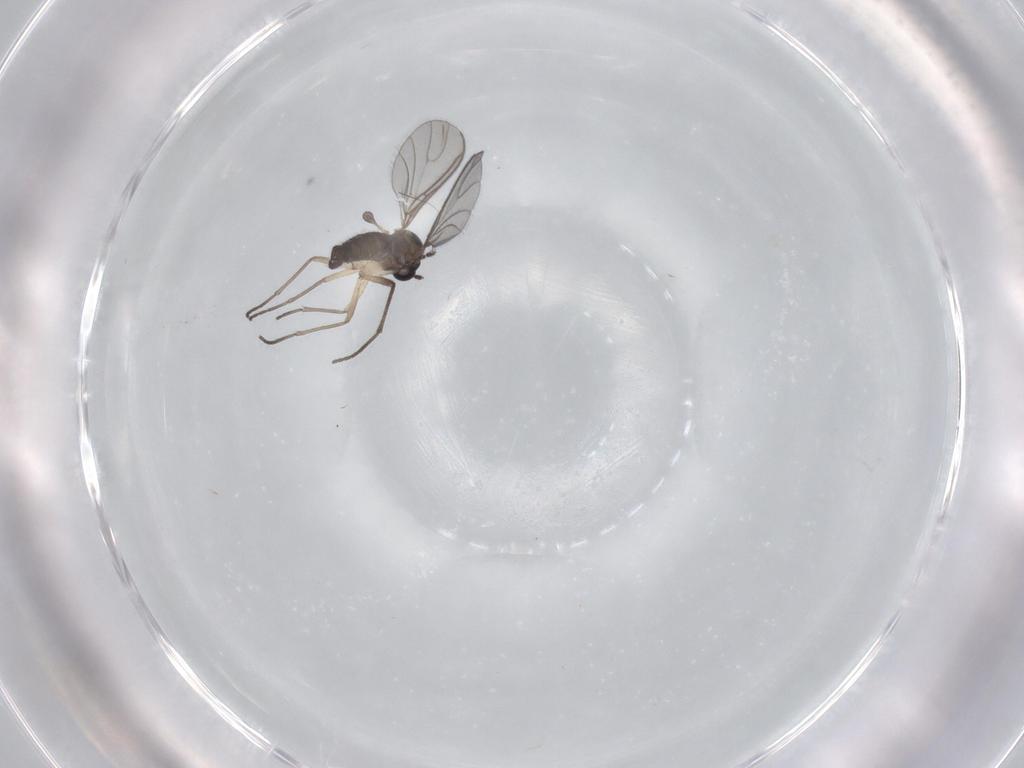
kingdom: Animalia
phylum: Arthropoda
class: Insecta
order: Diptera
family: Sciaridae
